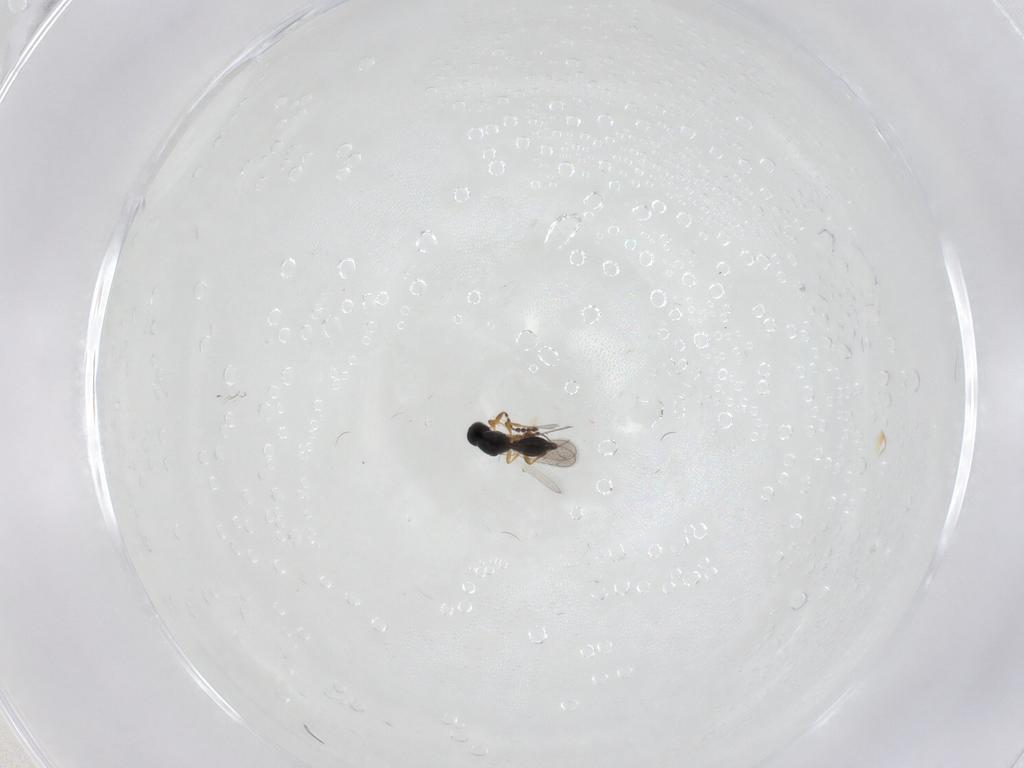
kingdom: Animalia
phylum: Arthropoda
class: Insecta
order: Hymenoptera
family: Platygastridae
